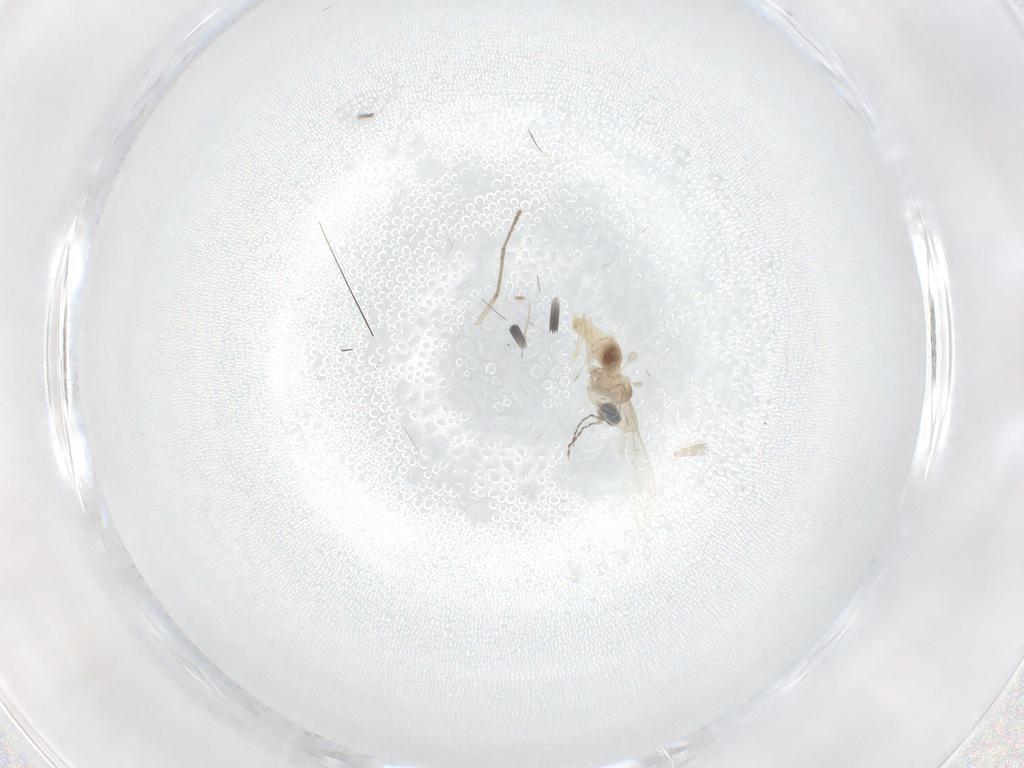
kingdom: Animalia
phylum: Arthropoda
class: Insecta
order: Diptera
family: Cecidomyiidae
